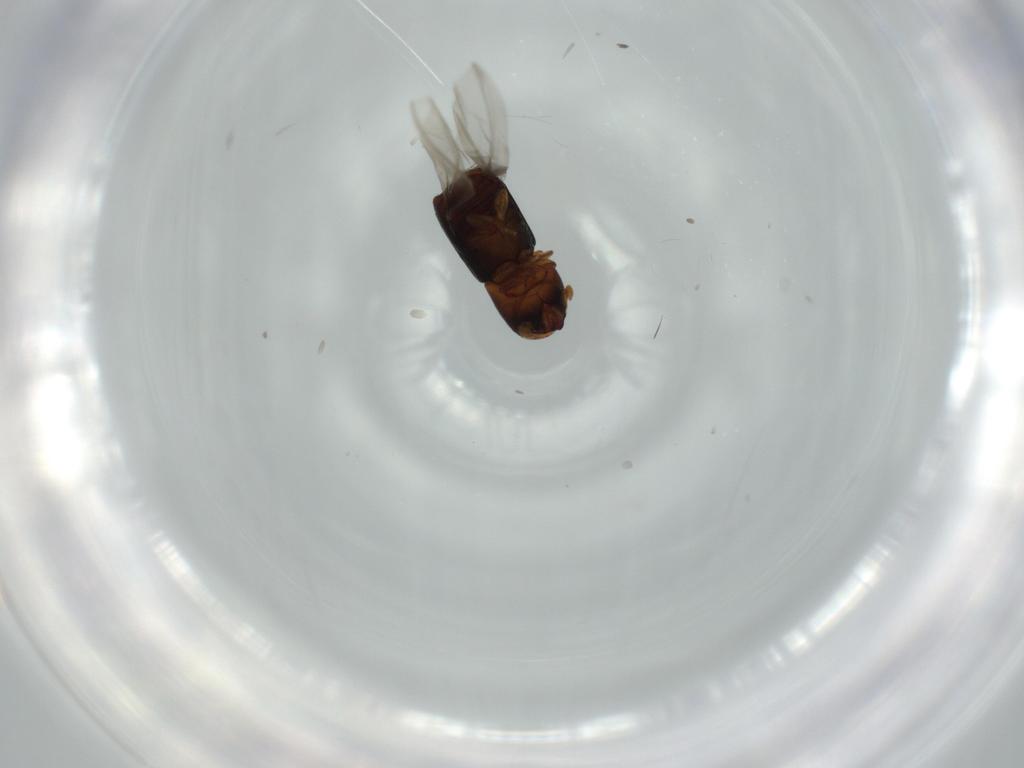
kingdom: Animalia
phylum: Arthropoda
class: Insecta
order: Coleoptera
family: Curculionidae
